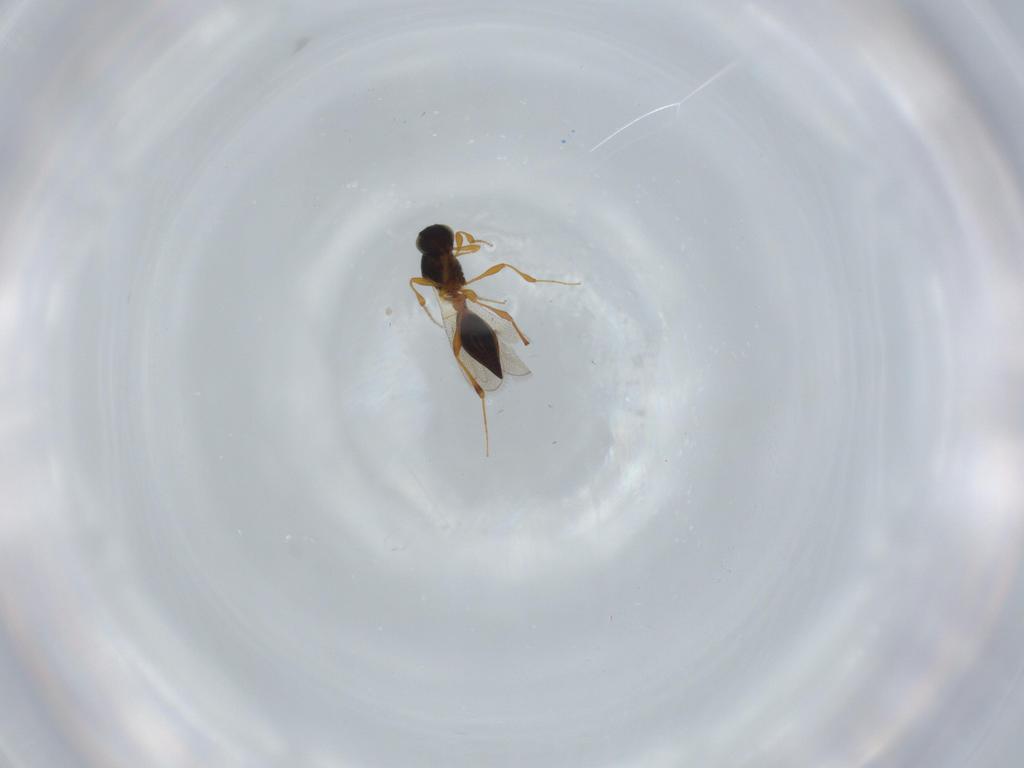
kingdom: Animalia
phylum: Arthropoda
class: Insecta
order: Hymenoptera
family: Platygastridae
